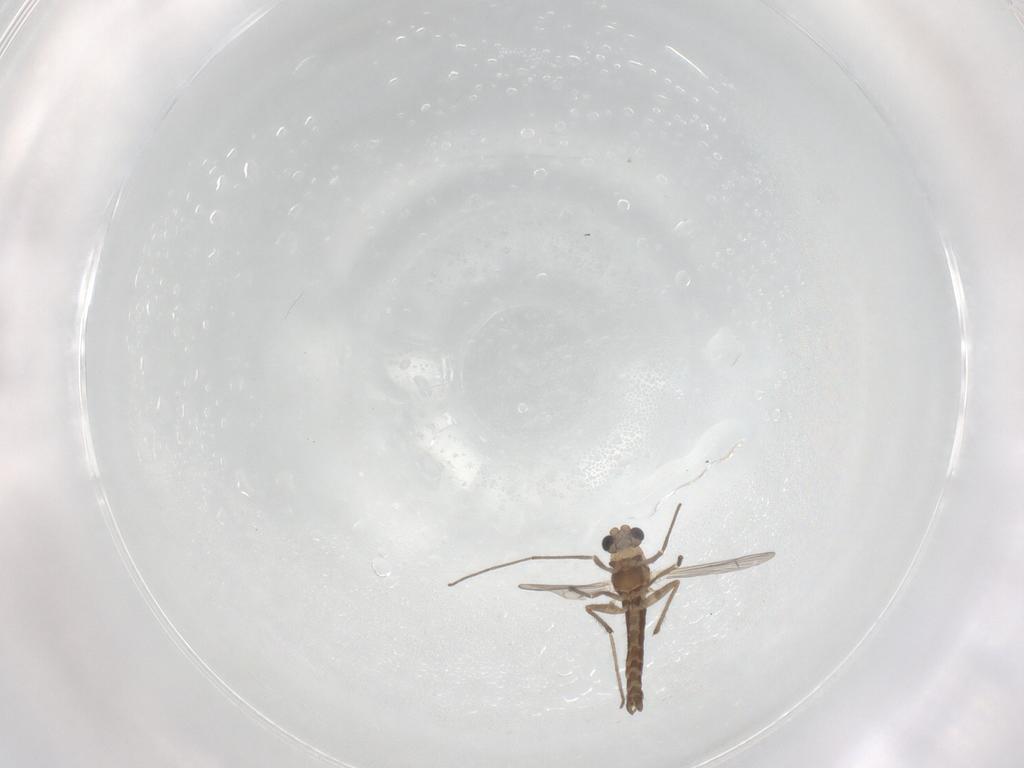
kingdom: Animalia
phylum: Arthropoda
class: Insecta
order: Diptera
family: Chironomidae
